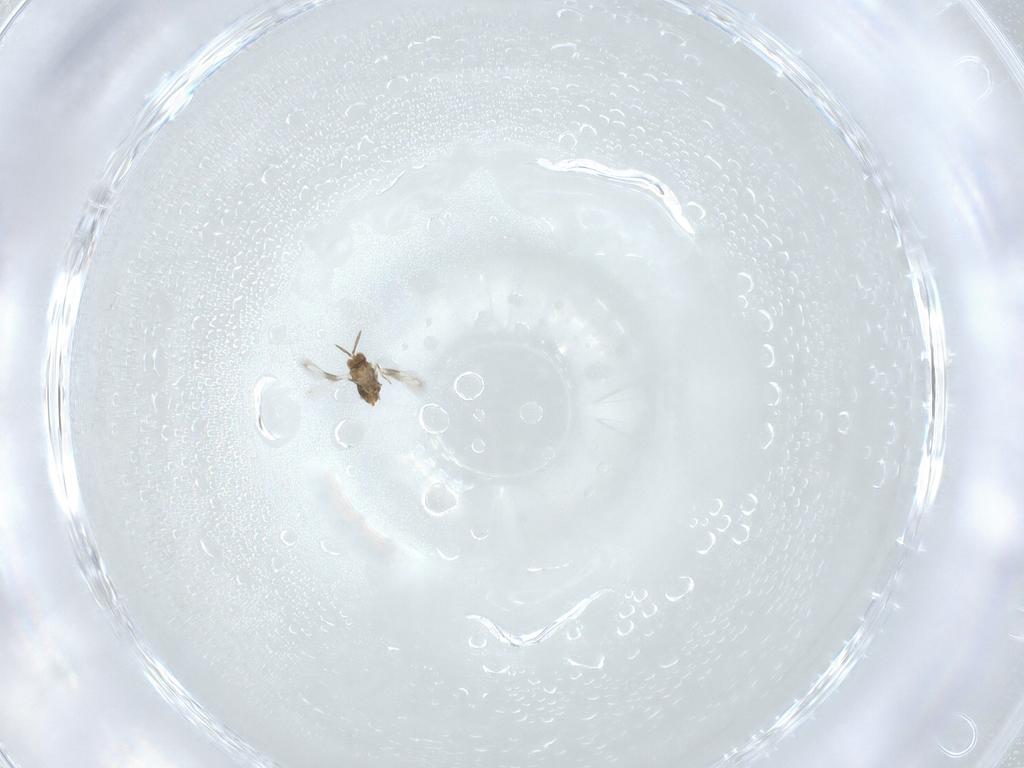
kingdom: Animalia
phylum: Arthropoda
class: Insecta
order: Hymenoptera
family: Aphelinidae
